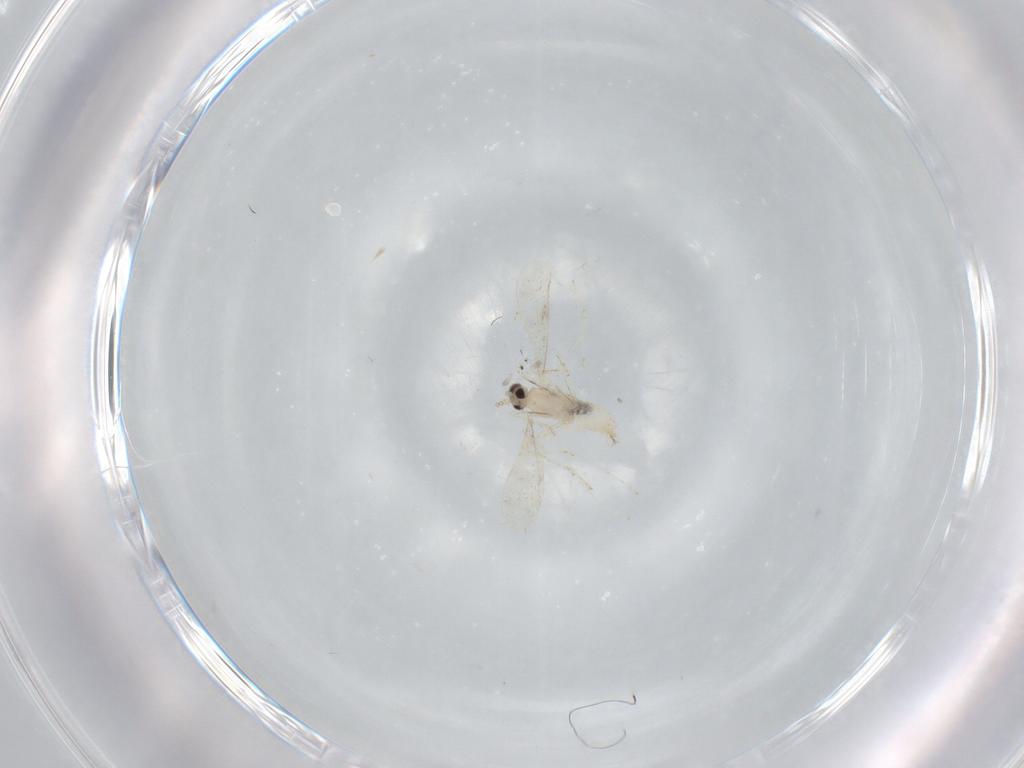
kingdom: Animalia
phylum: Arthropoda
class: Insecta
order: Diptera
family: Cecidomyiidae
